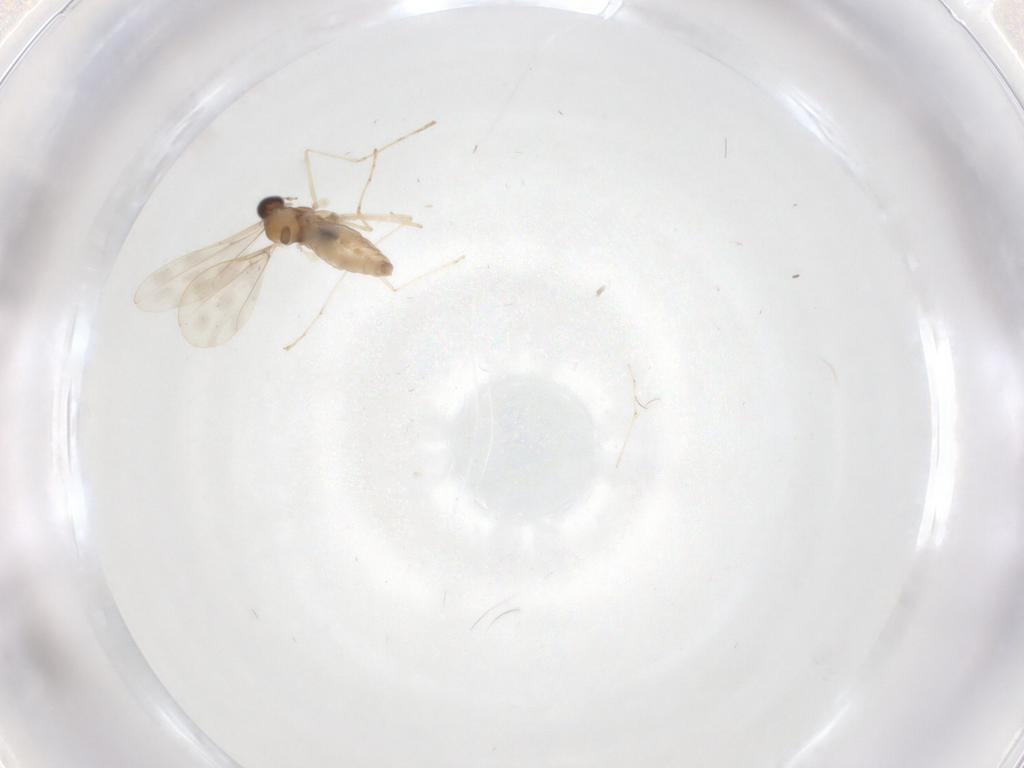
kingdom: Animalia
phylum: Arthropoda
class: Insecta
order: Diptera
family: Cecidomyiidae
